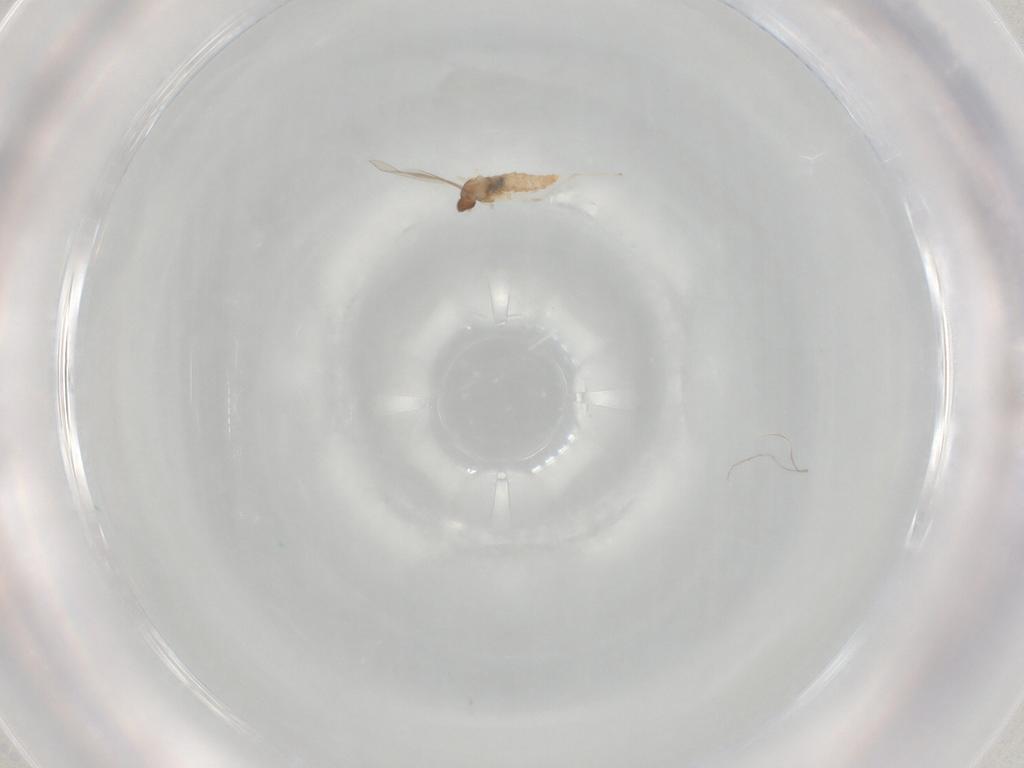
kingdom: Animalia
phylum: Arthropoda
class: Insecta
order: Diptera
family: Cecidomyiidae
